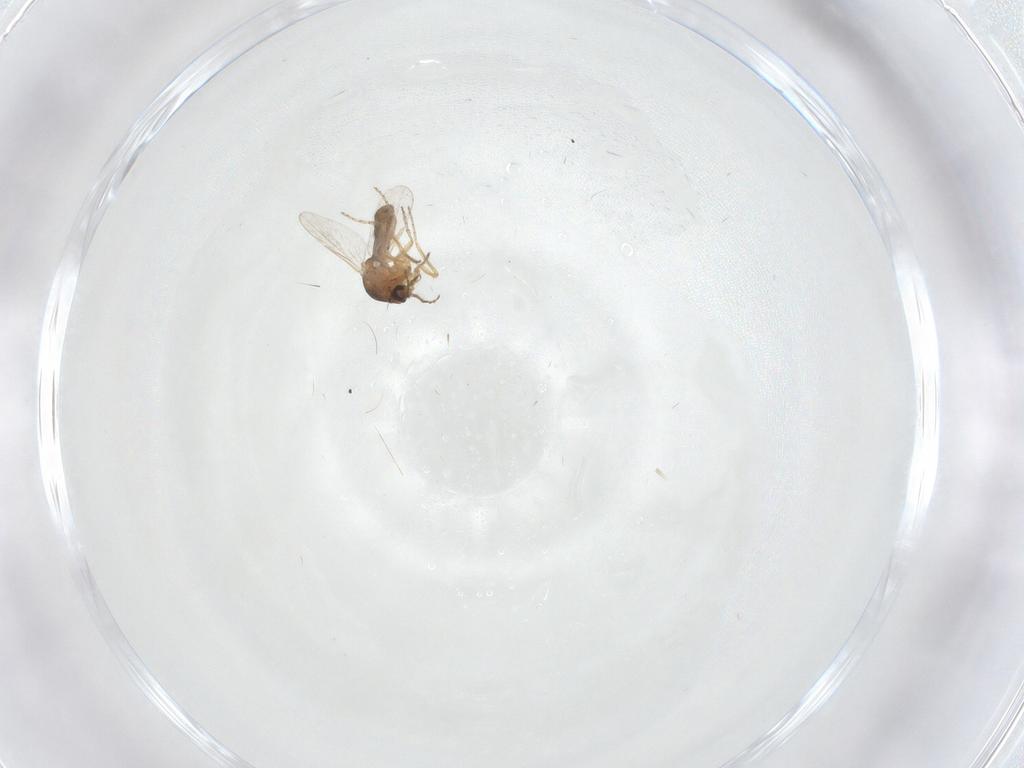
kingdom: Animalia
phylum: Arthropoda
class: Insecta
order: Diptera
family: Ceratopogonidae
